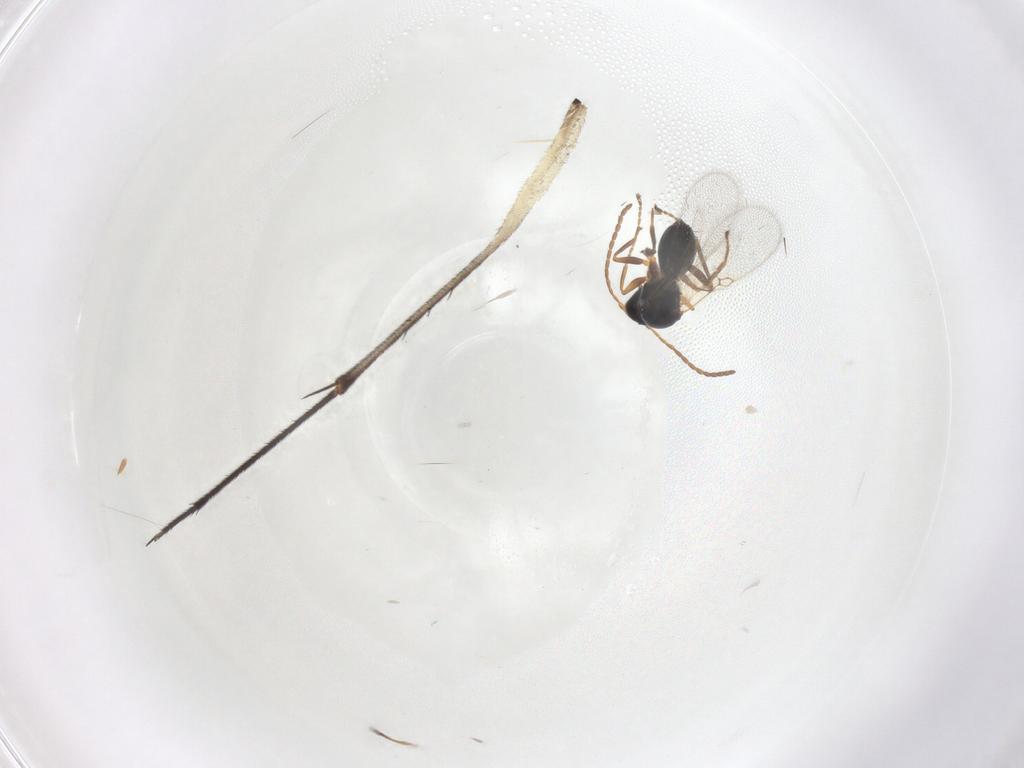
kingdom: Animalia
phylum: Arthropoda
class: Insecta
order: Hymenoptera
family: Figitidae
